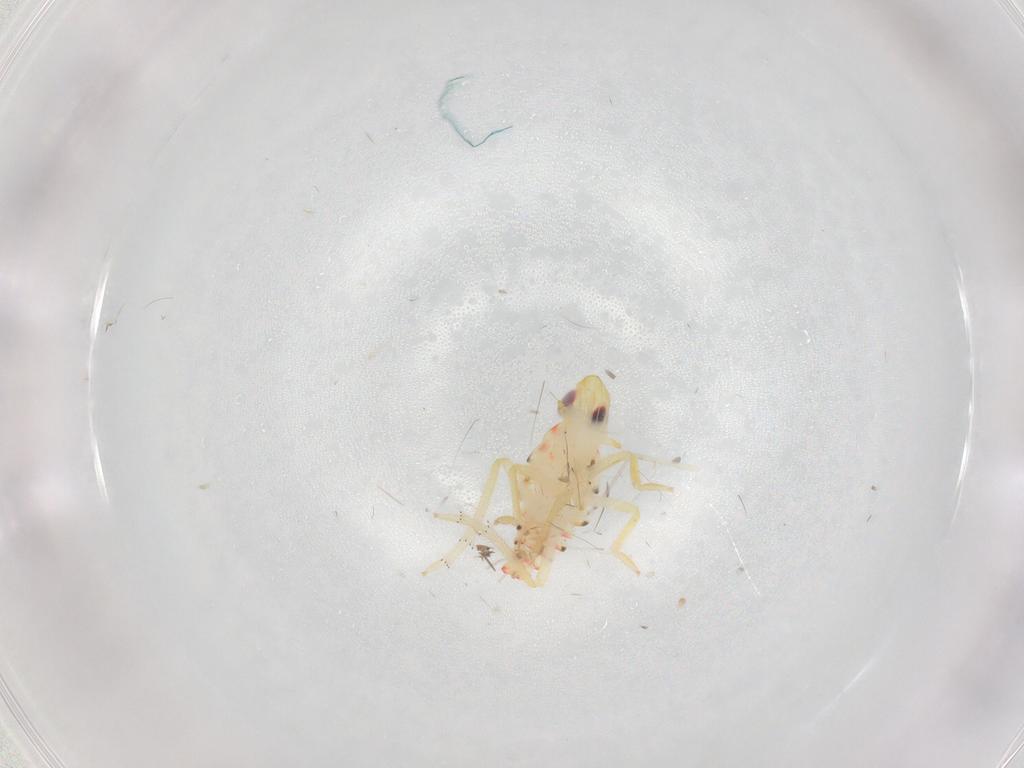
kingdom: Animalia
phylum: Arthropoda
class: Insecta
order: Hemiptera
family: Tropiduchidae
